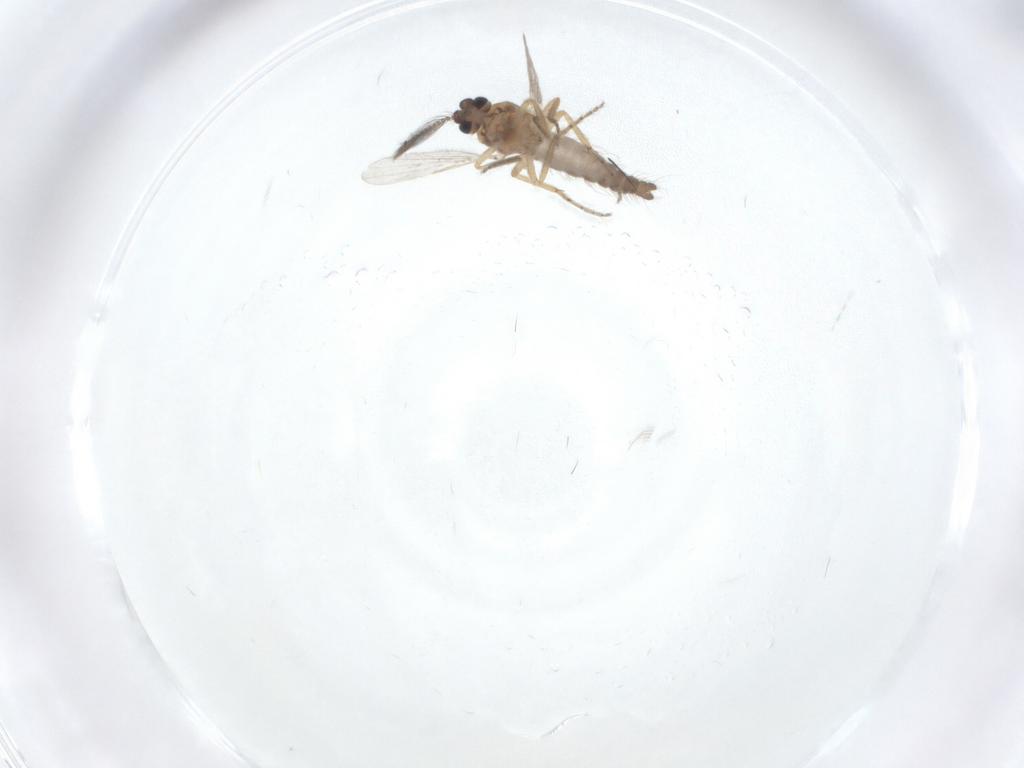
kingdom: Animalia
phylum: Arthropoda
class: Insecta
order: Diptera
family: Ceratopogonidae
